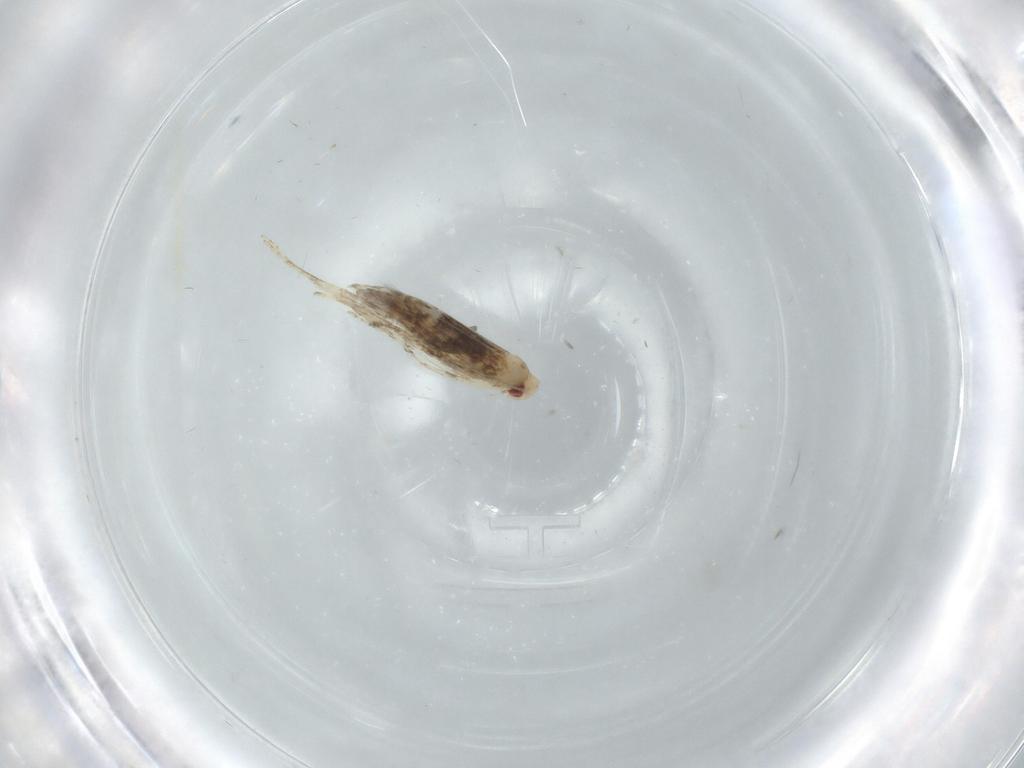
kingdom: Animalia
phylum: Arthropoda
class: Insecta
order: Lepidoptera
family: Gracillariidae
